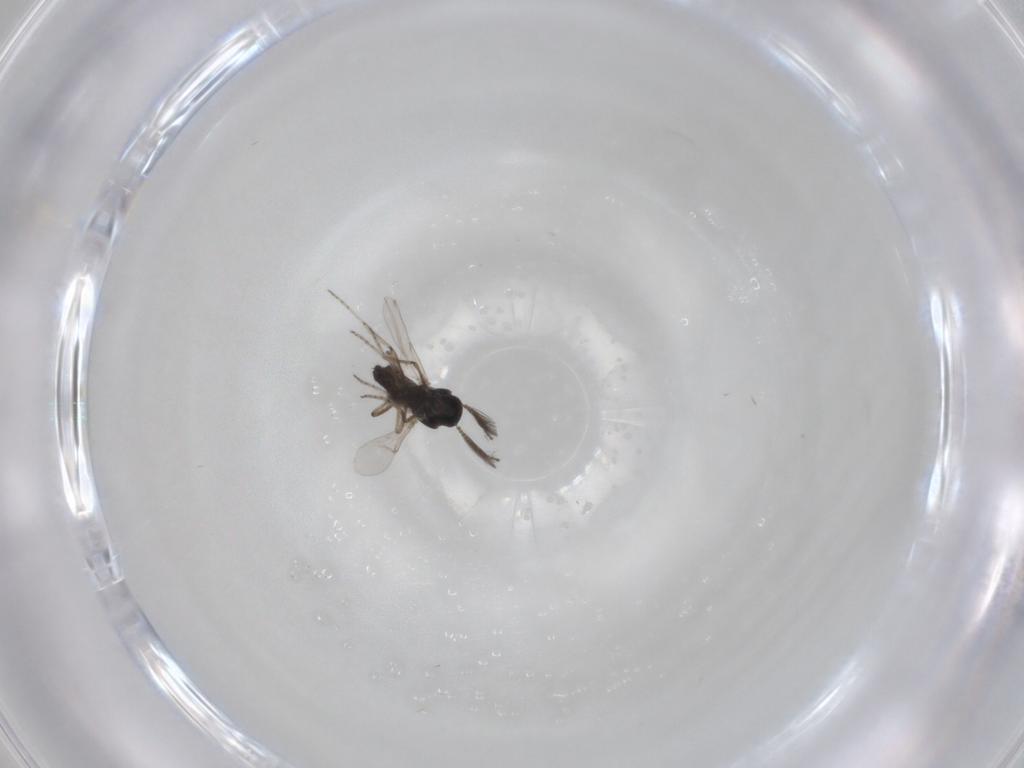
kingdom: Animalia
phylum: Arthropoda
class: Insecta
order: Diptera
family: Ceratopogonidae
